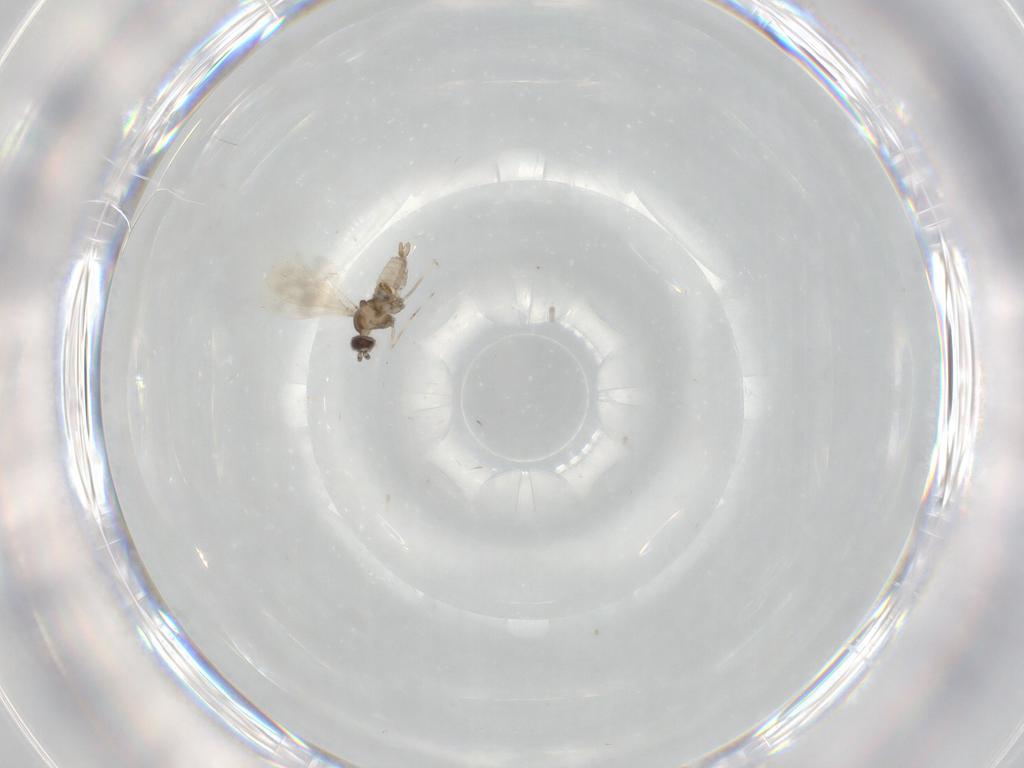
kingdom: Animalia
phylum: Arthropoda
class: Insecta
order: Diptera
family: Cecidomyiidae
